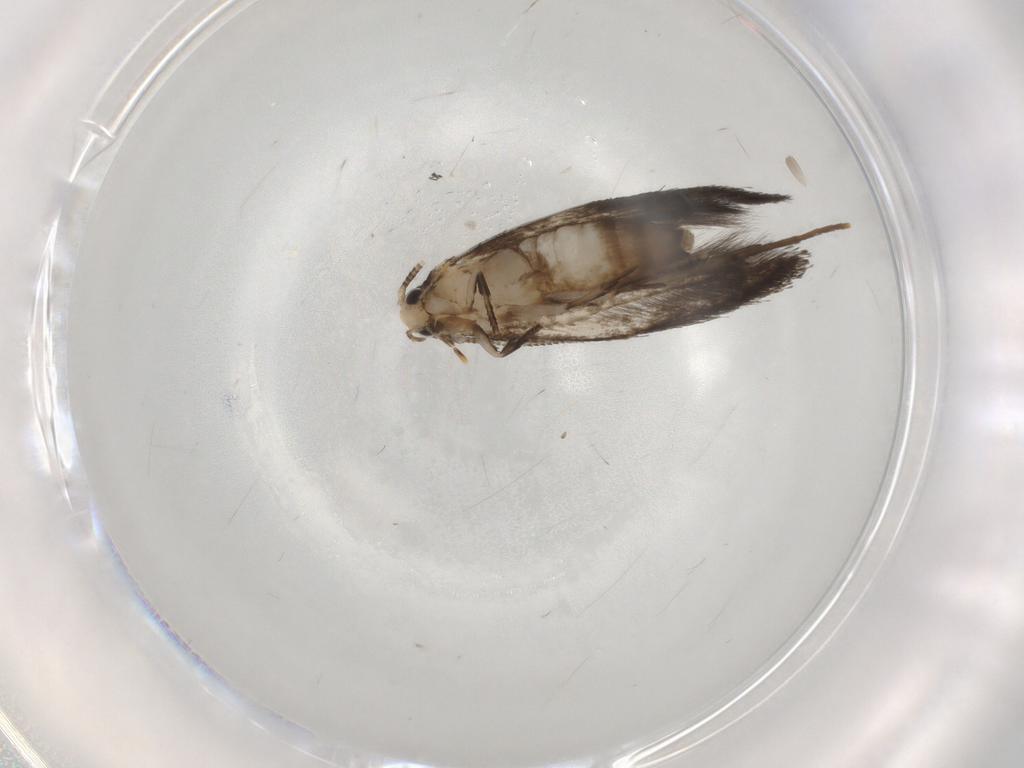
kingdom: Animalia
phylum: Arthropoda
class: Insecta
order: Lepidoptera
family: Tineidae
